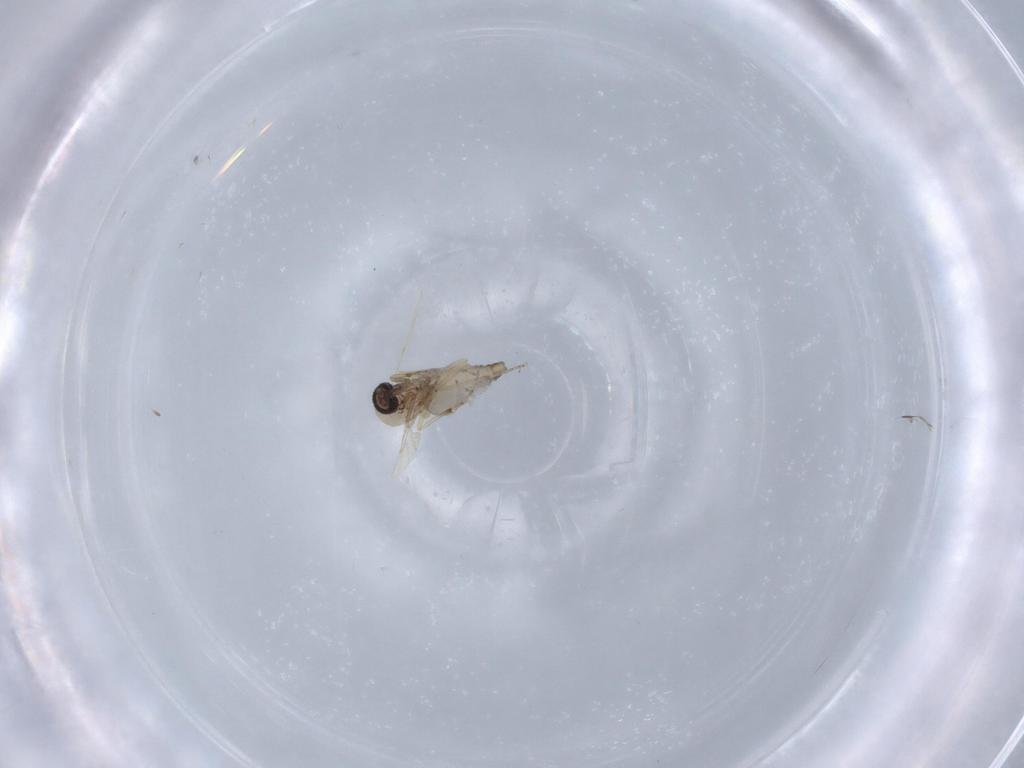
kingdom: Animalia
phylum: Arthropoda
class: Insecta
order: Diptera
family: Ceratopogonidae
